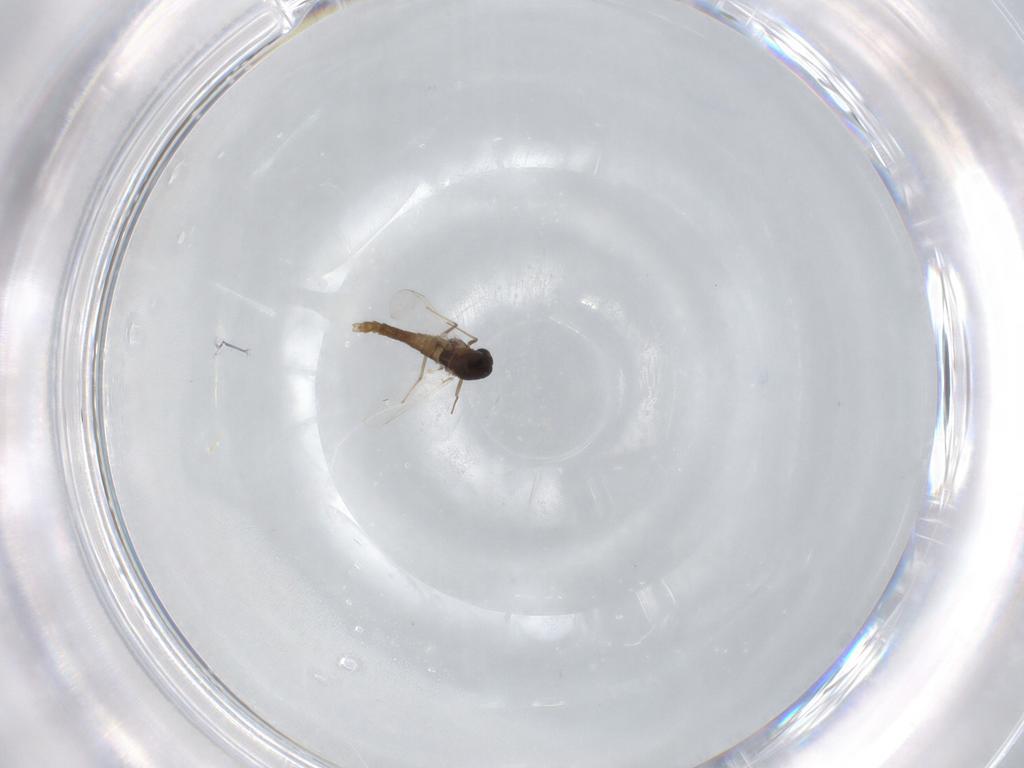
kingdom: Animalia
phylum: Arthropoda
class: Insecta
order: Diptera
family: Chironomidae
